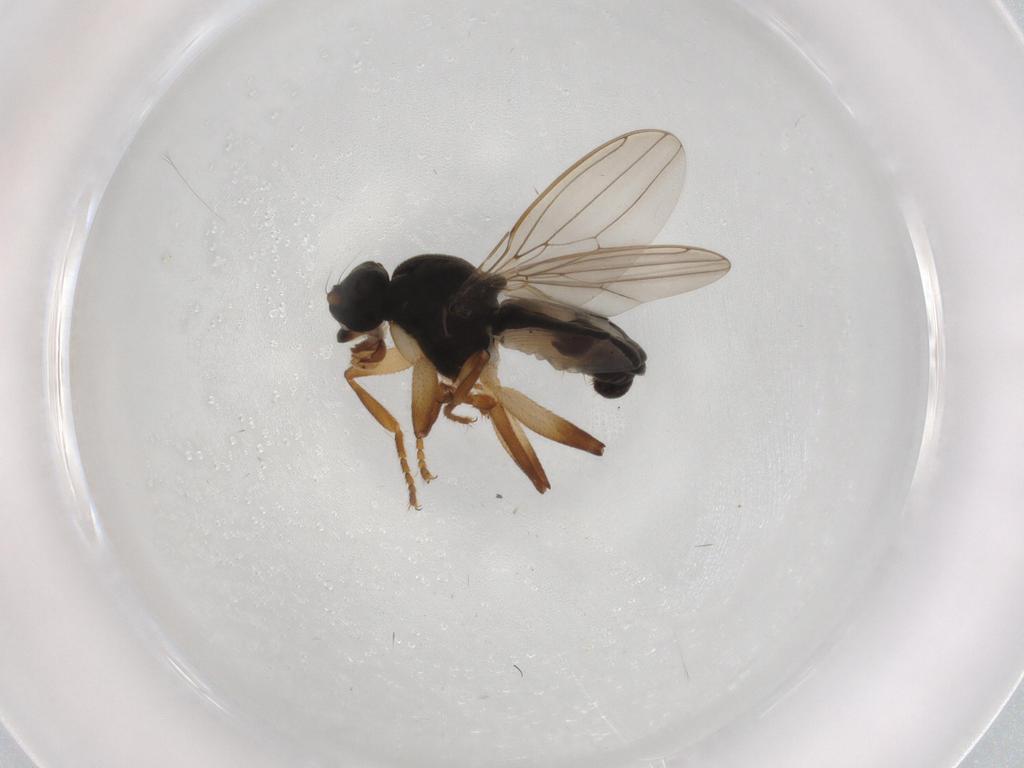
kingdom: Animalia
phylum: Arthropoda
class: Insecta
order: Diptera
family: Sphaeroceridae
